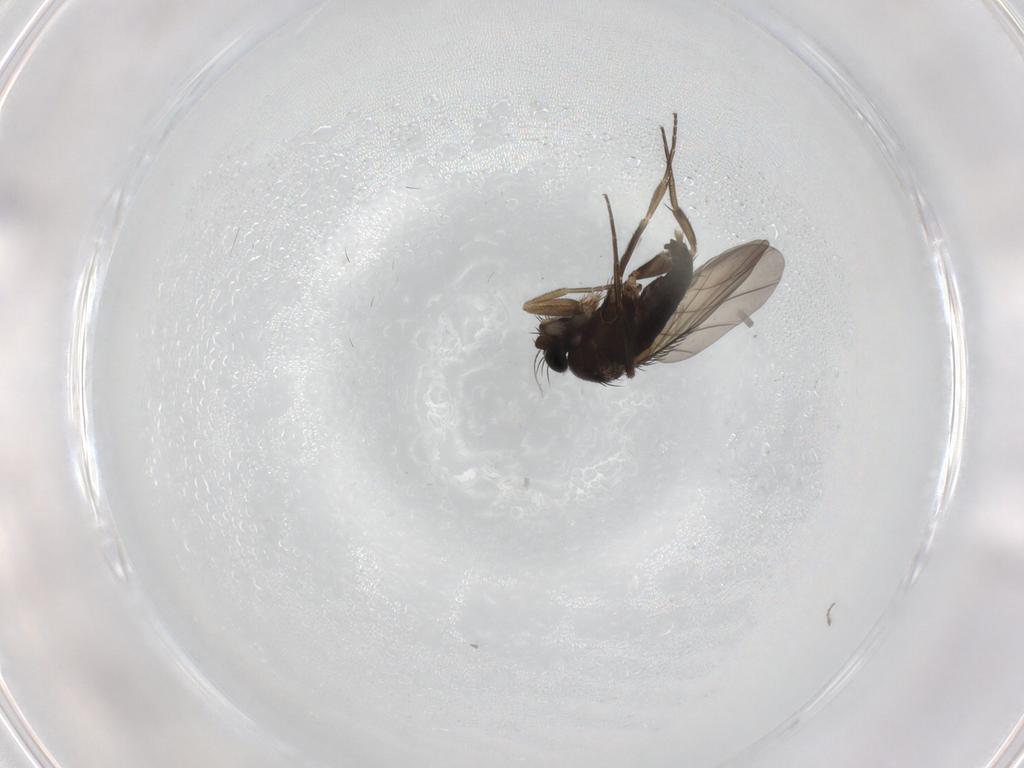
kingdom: Animalia
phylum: Arthropoda
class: Insecta
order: Diptera
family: Phoridae
